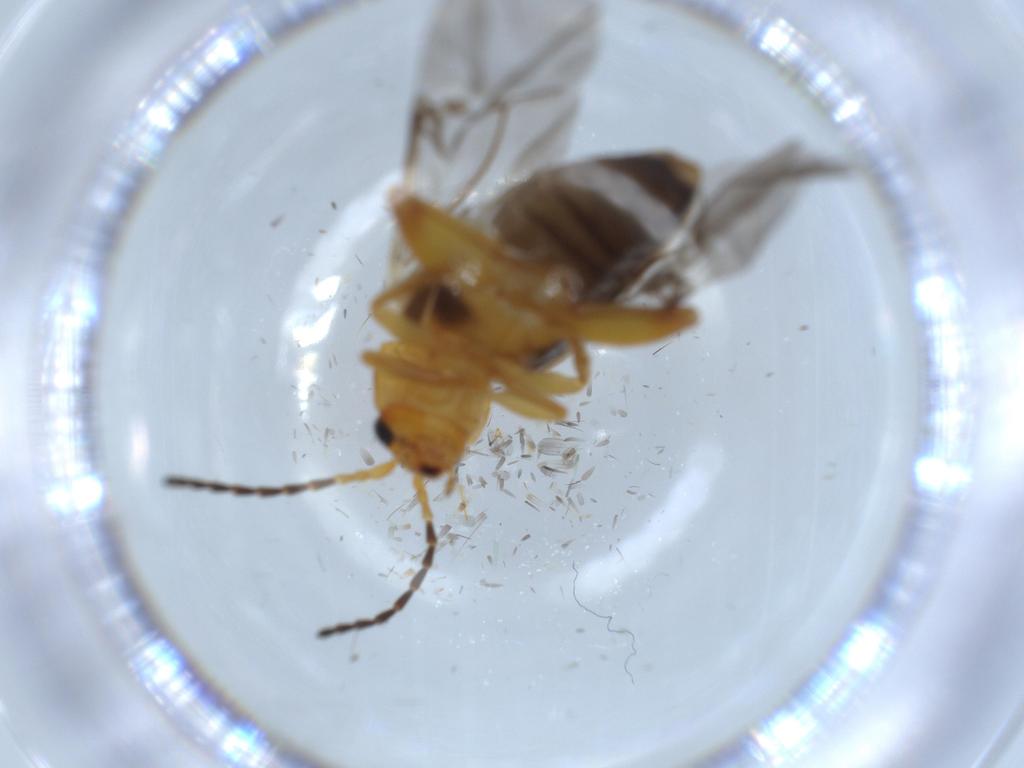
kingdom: Animalia
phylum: Arthropoda
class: Insecta
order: Coleoptera
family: Chrysomelidae
